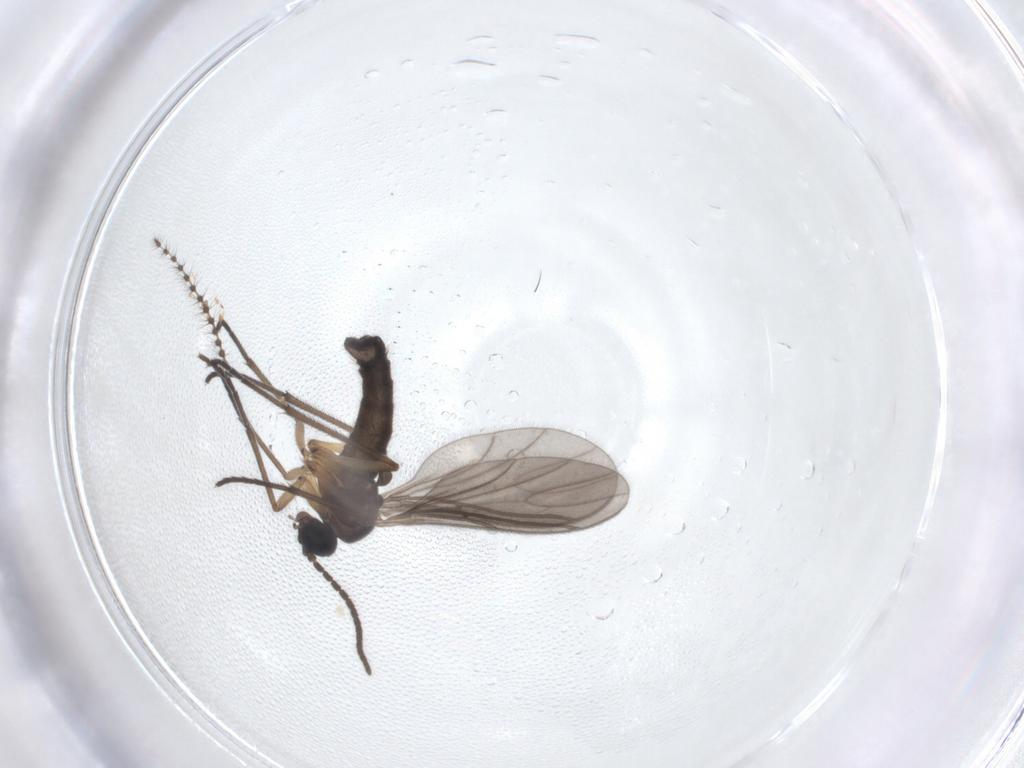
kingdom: Animalia
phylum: Arthropoda
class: Insecta
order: Diptera
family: Sciaridae
